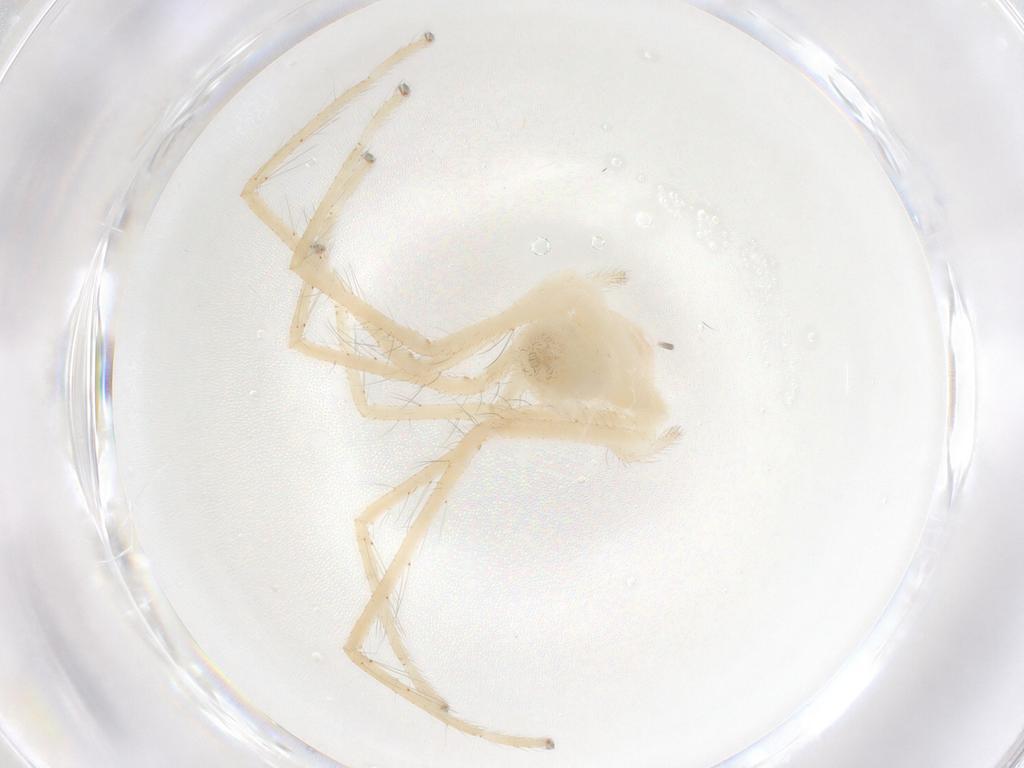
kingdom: Animalia
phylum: Arthropoda
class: Arachnida
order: Araneae
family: Sparassidae
